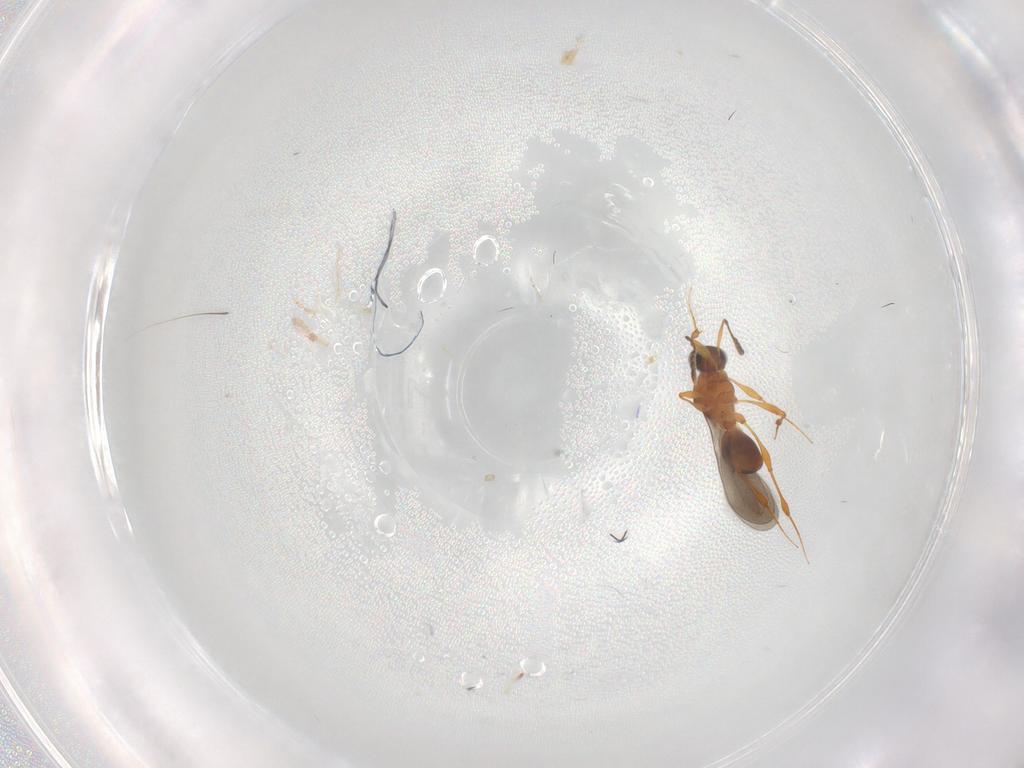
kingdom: Animalia
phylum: Arthropoda
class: Insecta
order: Hymenoptera
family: Platygastridae
